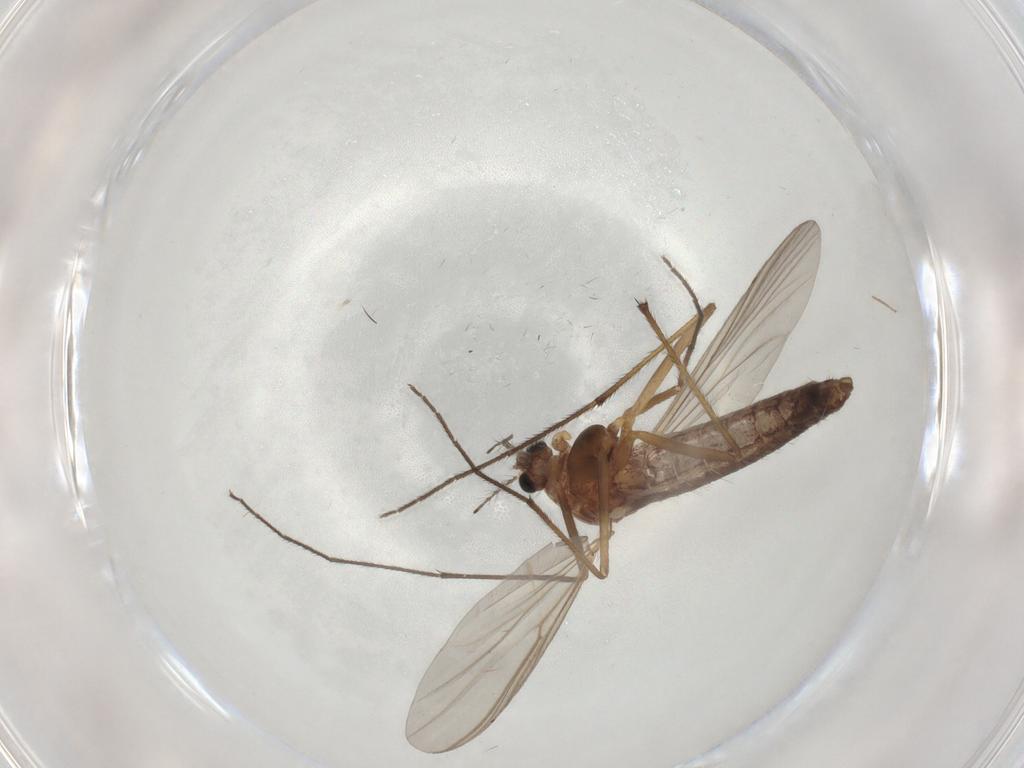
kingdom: Animalia
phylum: Arthropoda
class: Insecta
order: Diptera
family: Chironomidae
